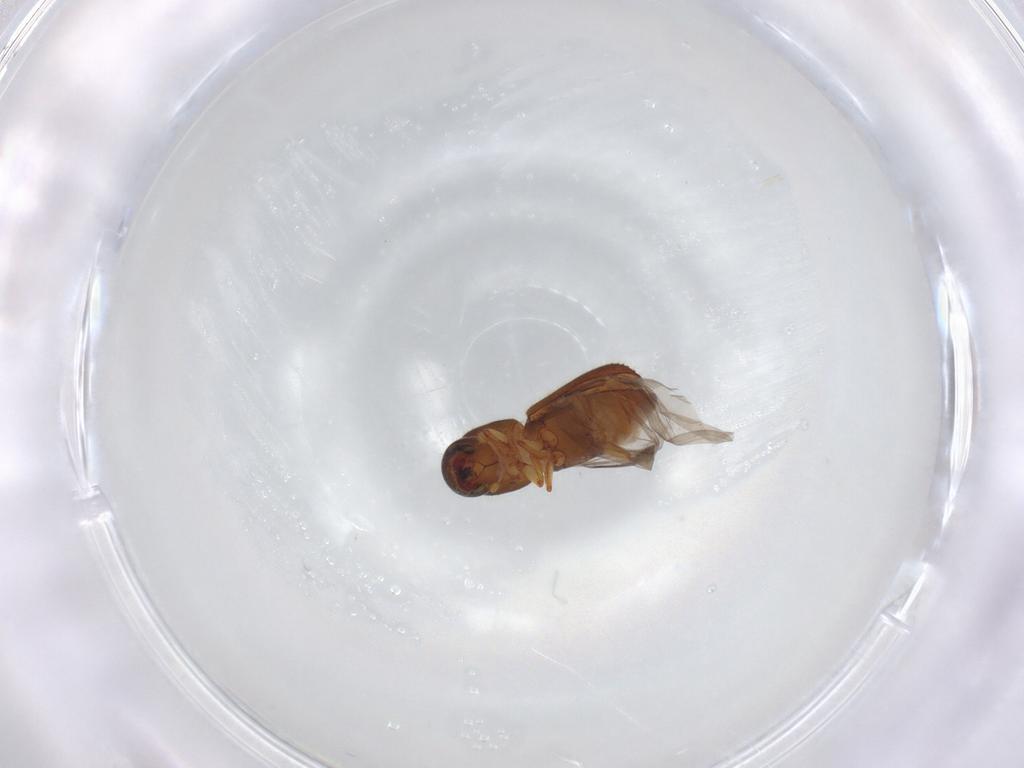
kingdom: Animalia
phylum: Arthropoda
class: Insecta
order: Coleoptera
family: Curculionidae
